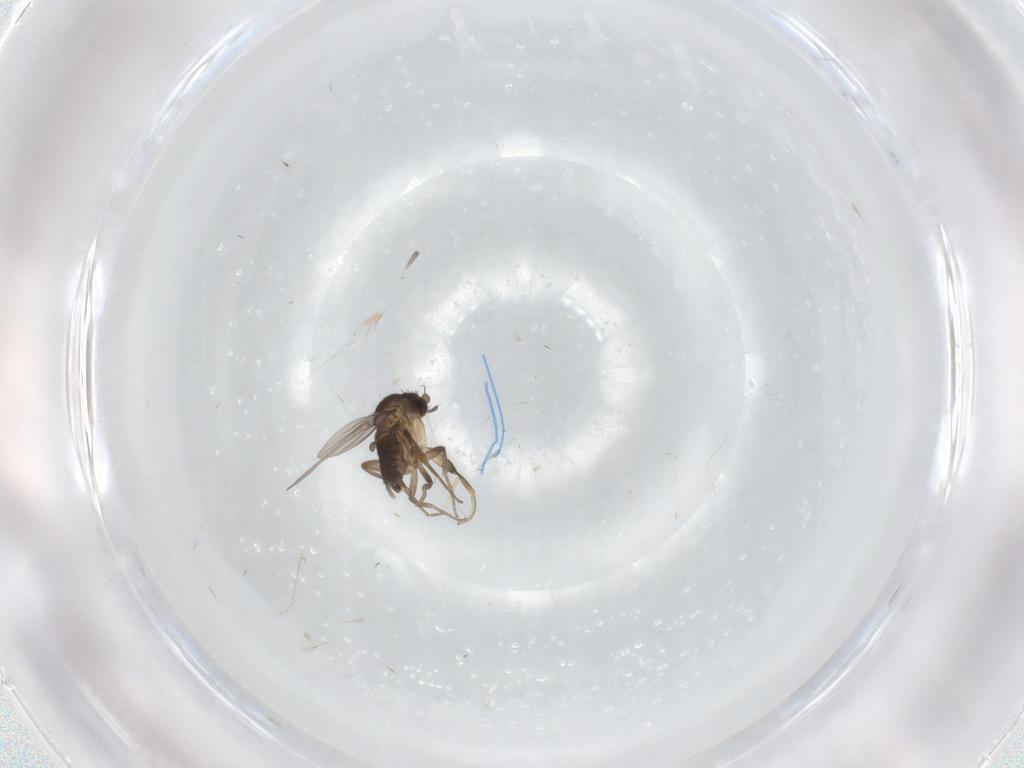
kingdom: Animalia
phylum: Arthropoda
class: Insecta
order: Diptera
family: Phoridae
